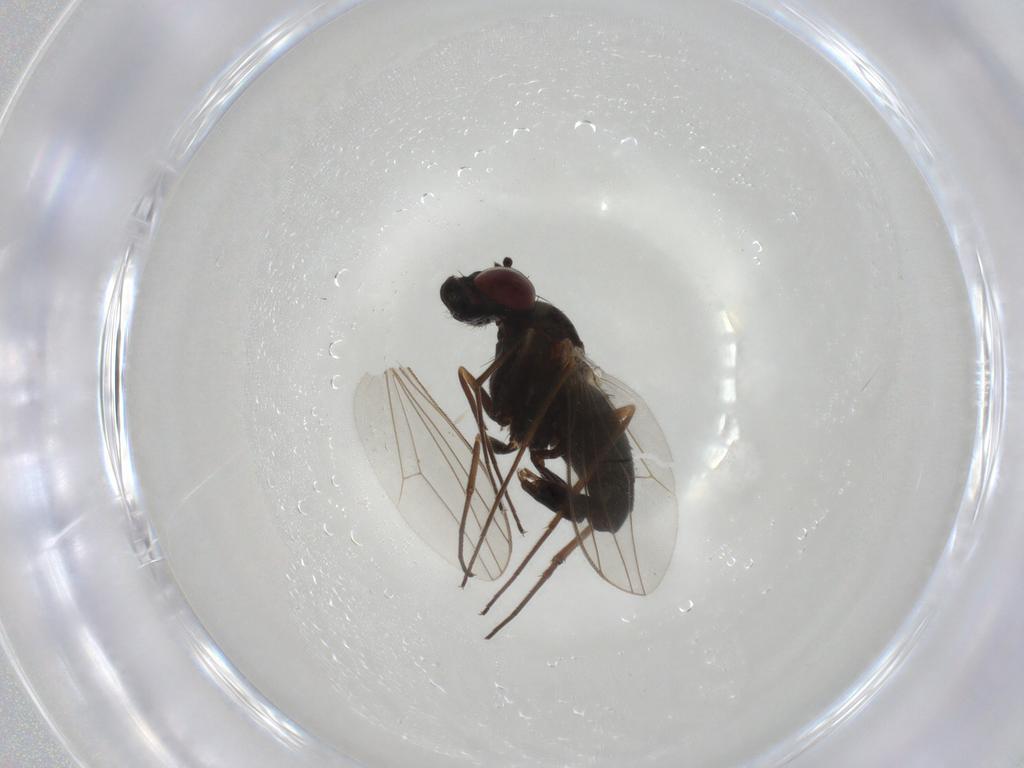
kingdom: Animalia
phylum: Arthropoda
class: Insecta
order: Diptera
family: Dolichopodidae
